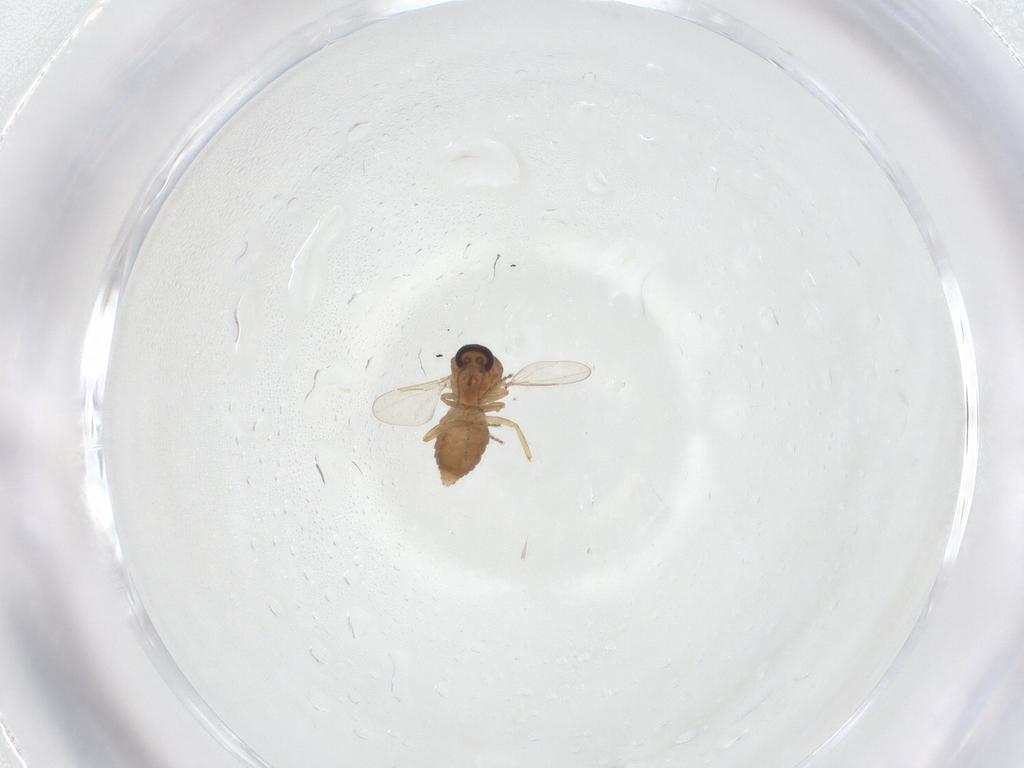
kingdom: Animalia
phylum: Arthropoda
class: Insecta
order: Diptera
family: Ceratopogonidae
